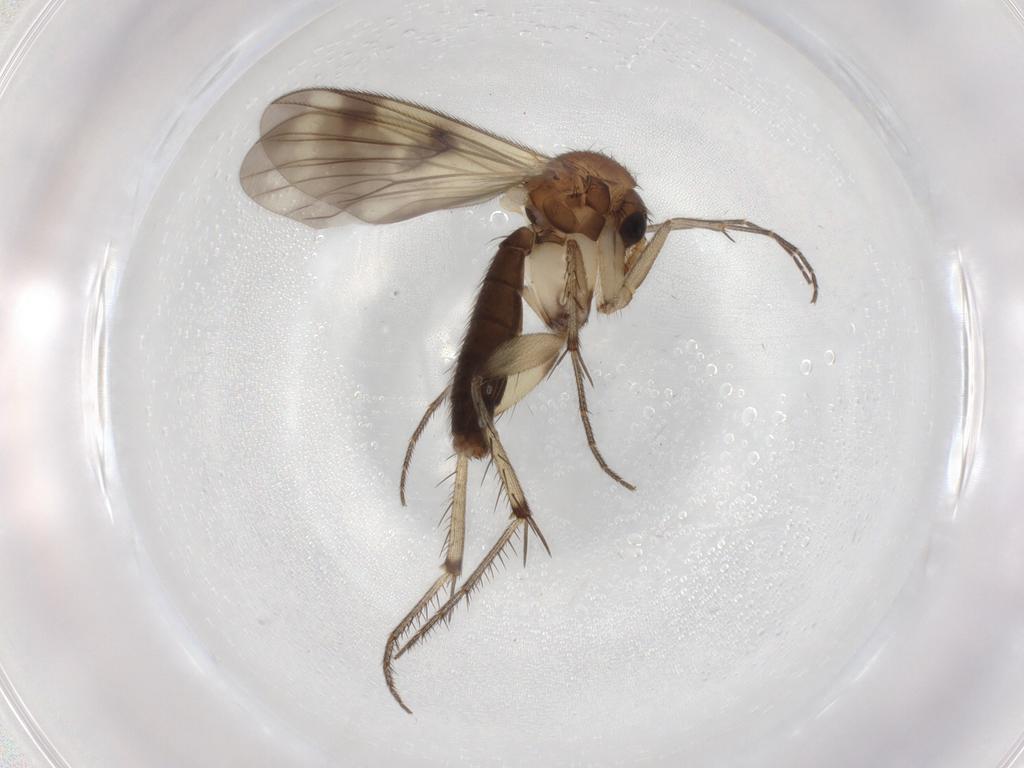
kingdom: Animalia
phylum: Arthropoda
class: Insecta
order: Diptera
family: Mycetophilidae
